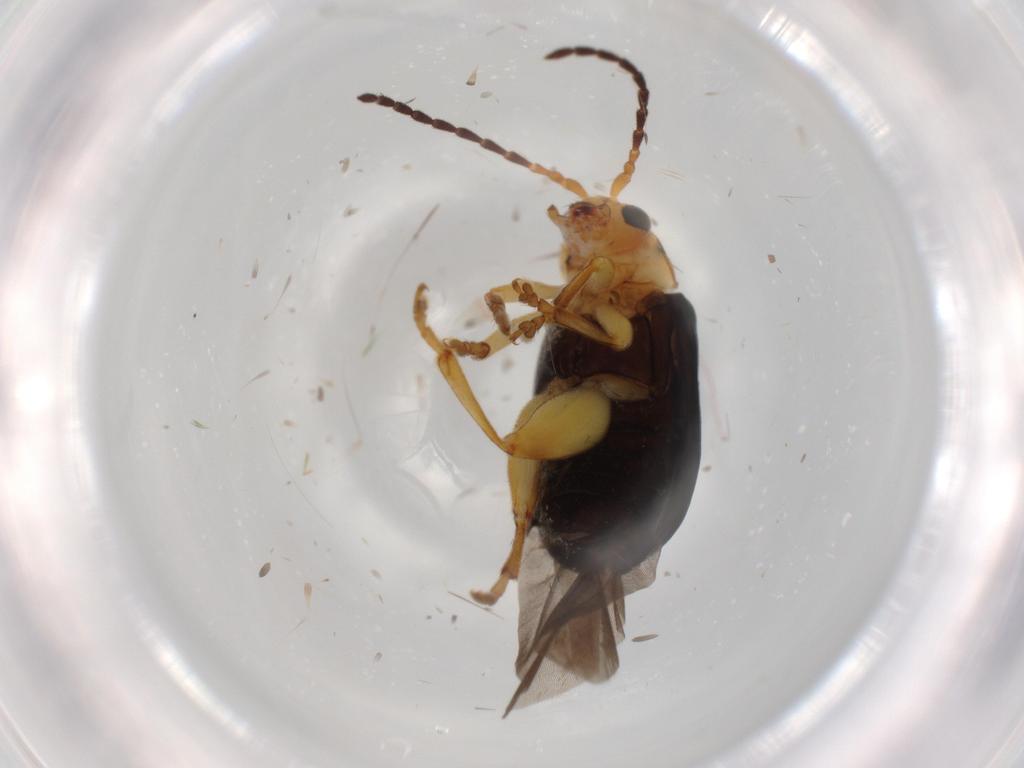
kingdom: Animalia
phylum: Arthropoda
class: Insecta
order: Coleoptera
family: Chrysomelidae
